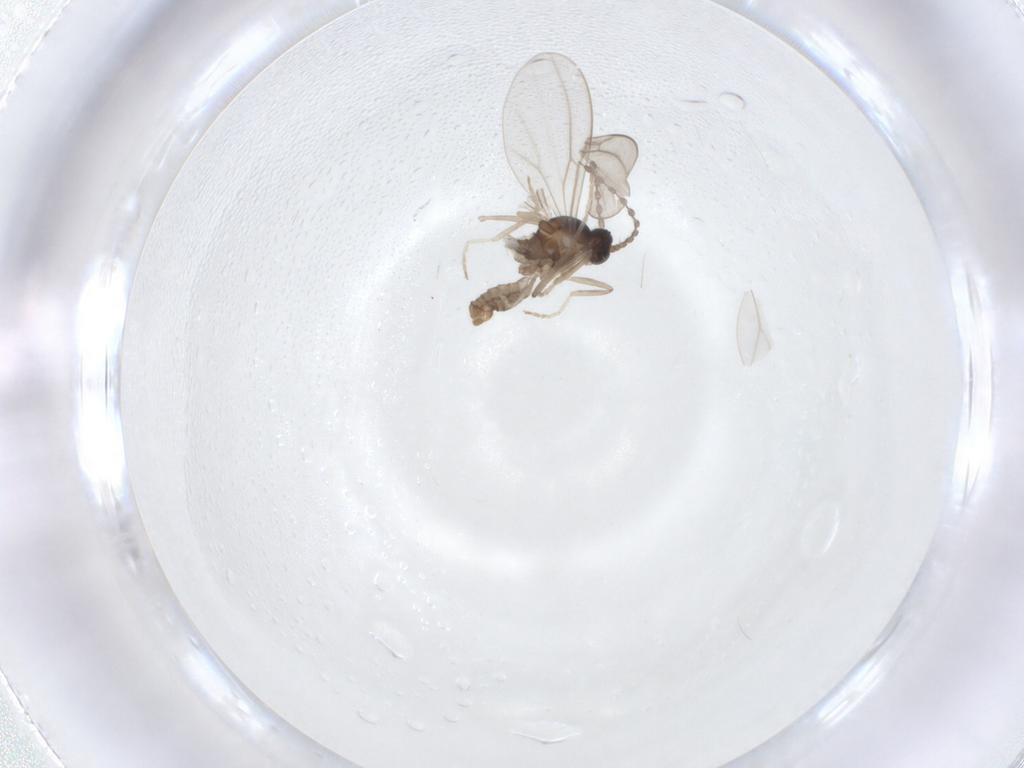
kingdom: Animalia
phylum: Arthropoda
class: Insecta
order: Diptera
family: Cecidomyiidae
